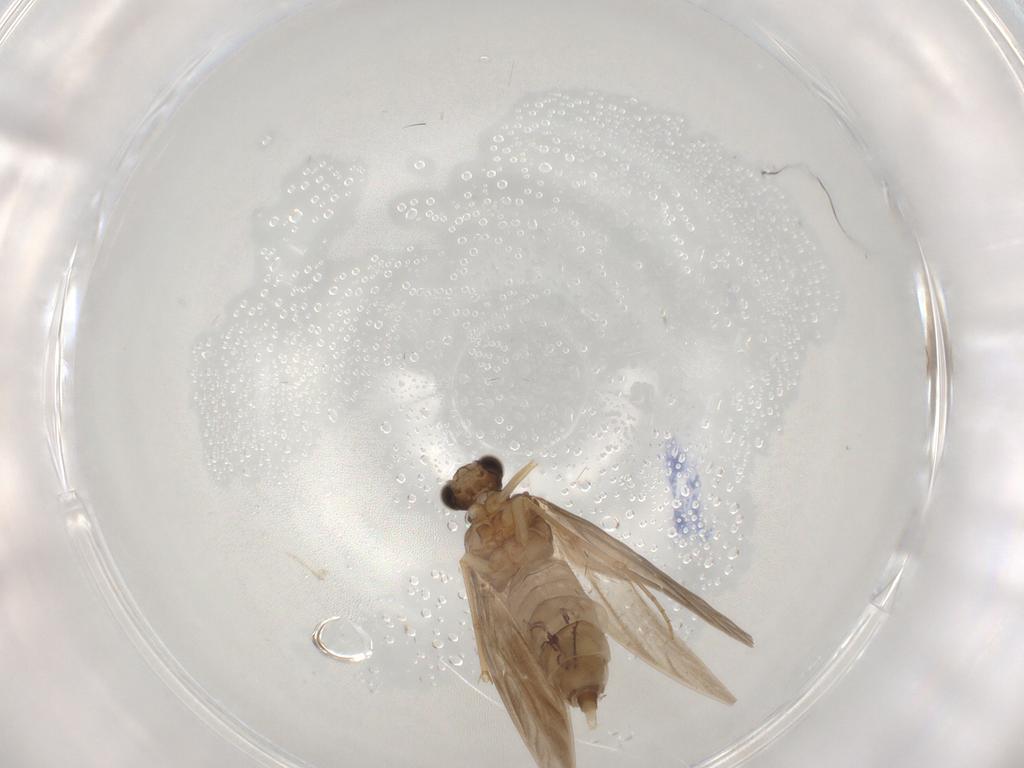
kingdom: Animalia
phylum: Arthropoda
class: Insecta
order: Trichoptera
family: Hydroptilidae
